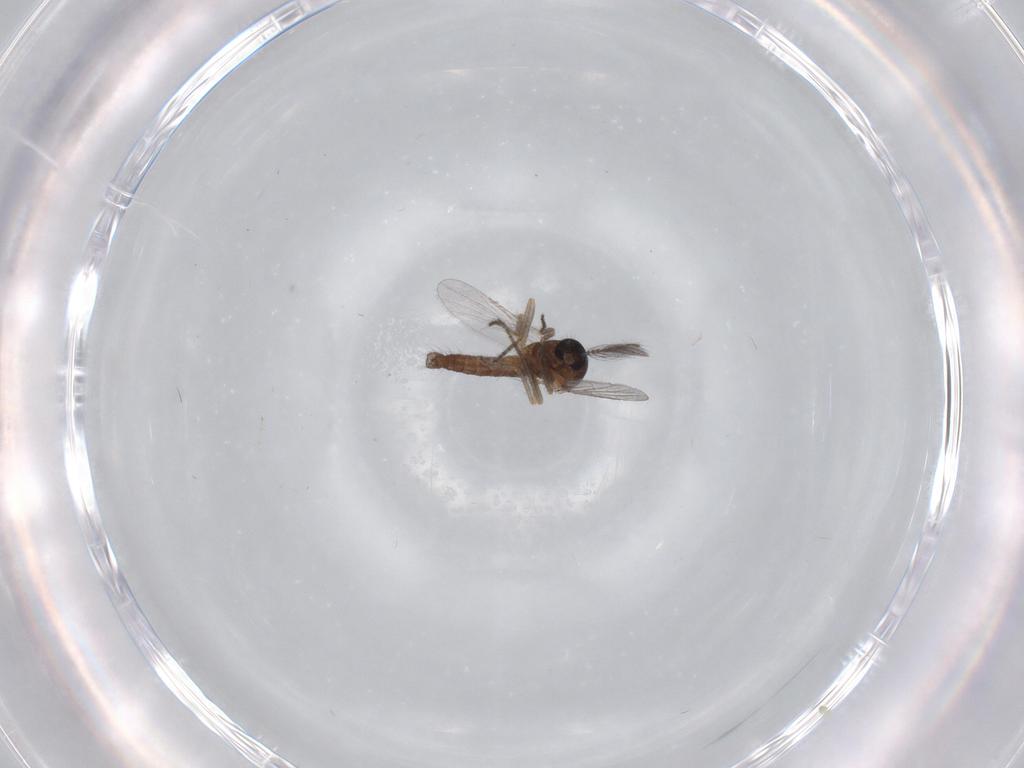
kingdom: Animalia
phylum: Arthropoda
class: Insecta
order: Diptera
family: Ceratopogonidae
